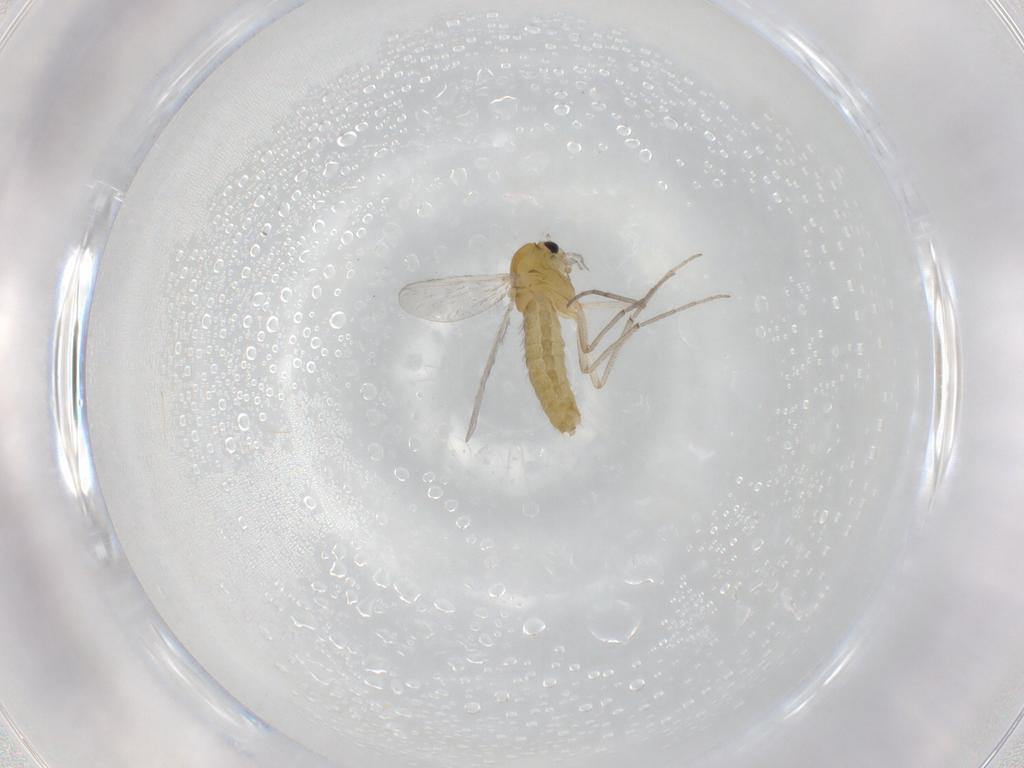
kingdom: Animalia
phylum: Arthropoda
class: Insecta
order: Diptera
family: Chironomidae
